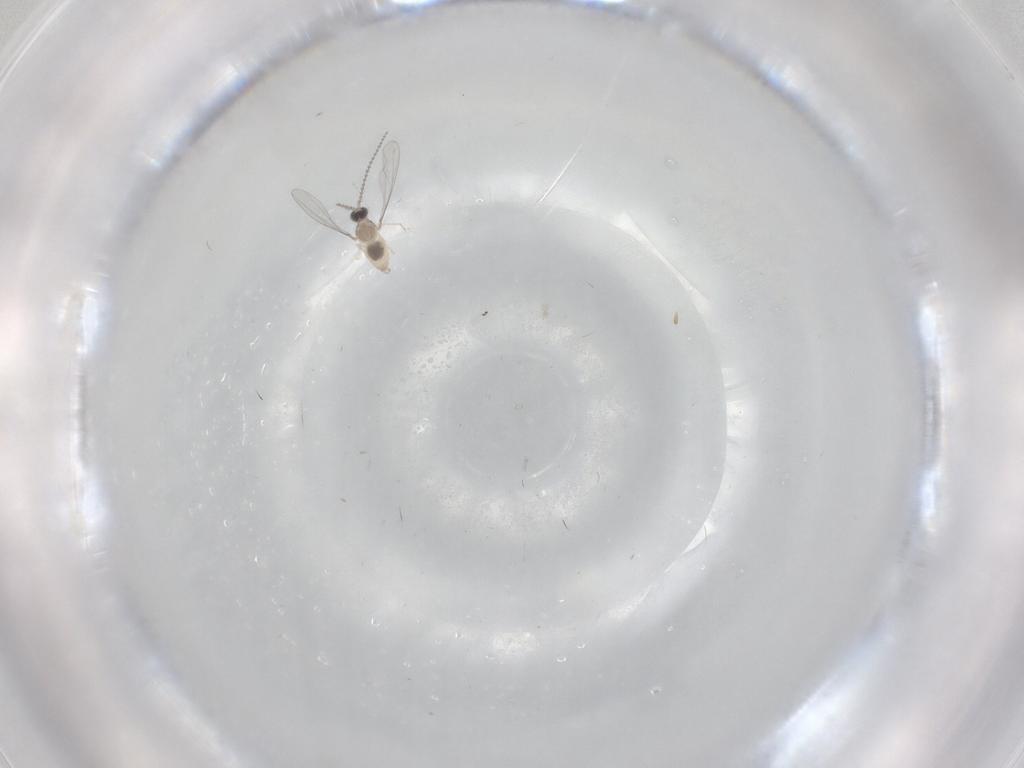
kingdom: Animalia
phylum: Arthropoda
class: Insecta
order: Diptera
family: Cecidomyiidae
